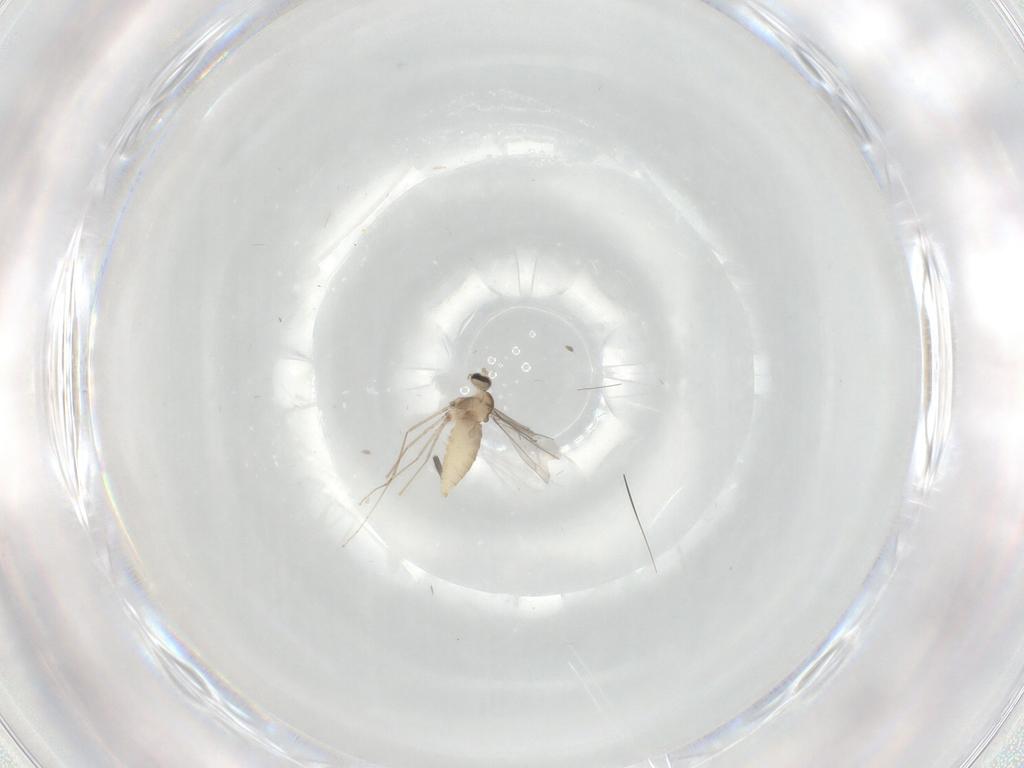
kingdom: Animalia
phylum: Arthropoda
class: Insecta
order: Diptera
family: Cecidomyiidae
